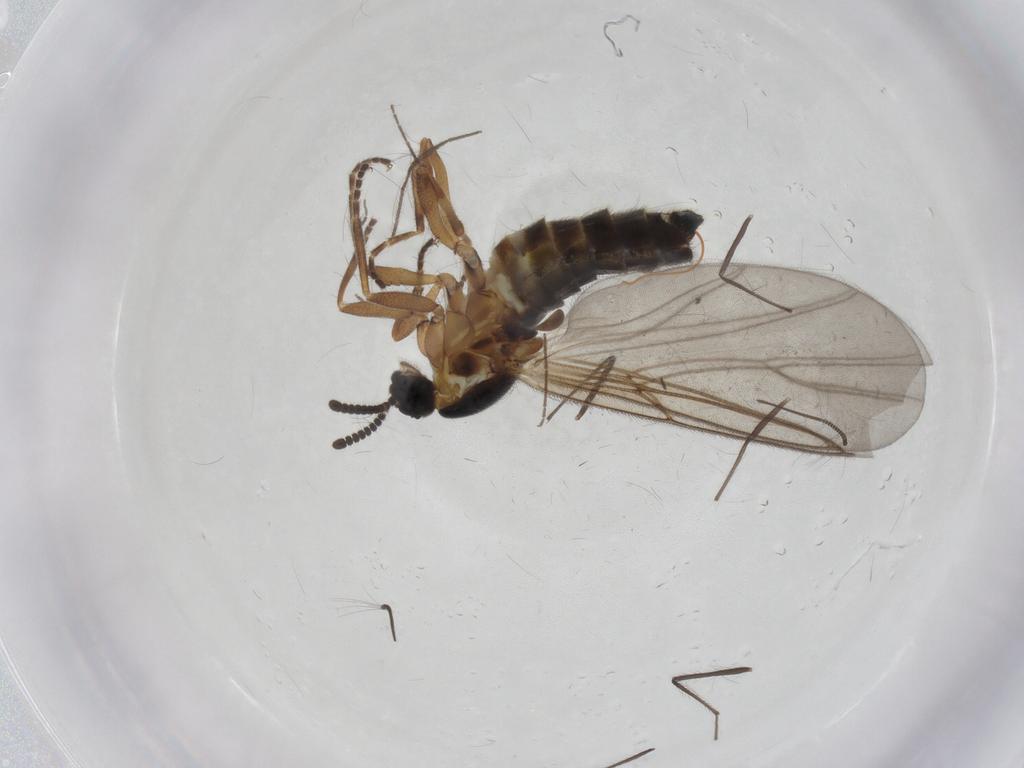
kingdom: Animalia
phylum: Arthropoda
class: Insecta
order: Diptera
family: Scatopsidae
